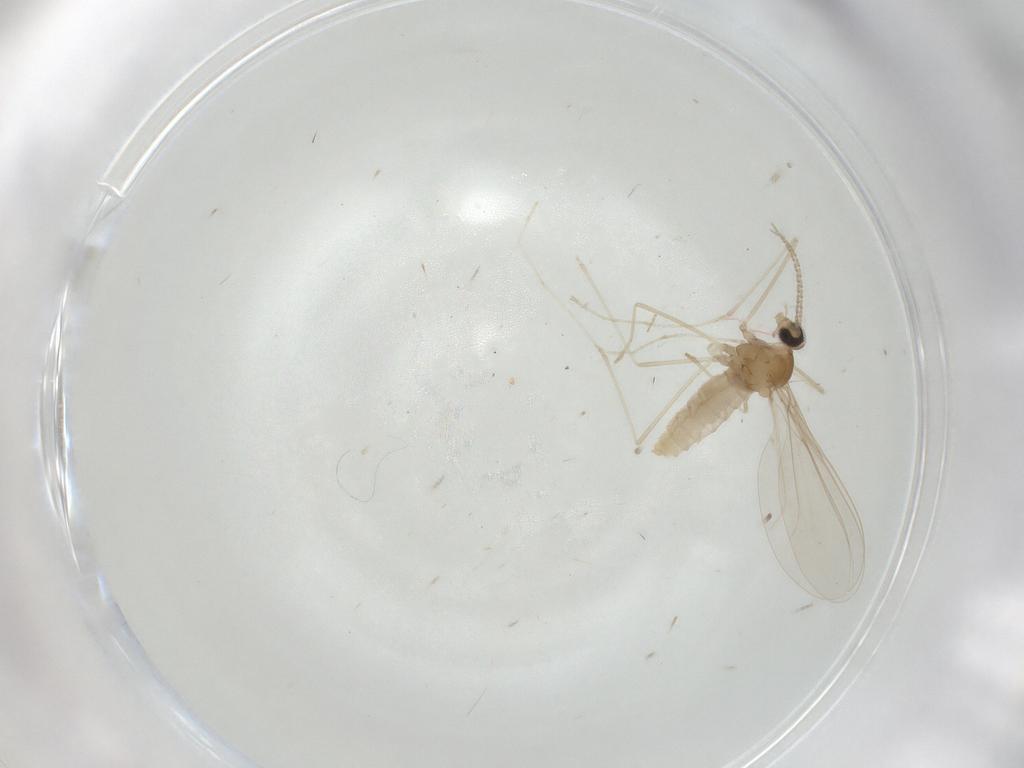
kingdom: Animalia
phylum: Arthropoda
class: Insecta
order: Diptera
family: Cecidomyiidae
